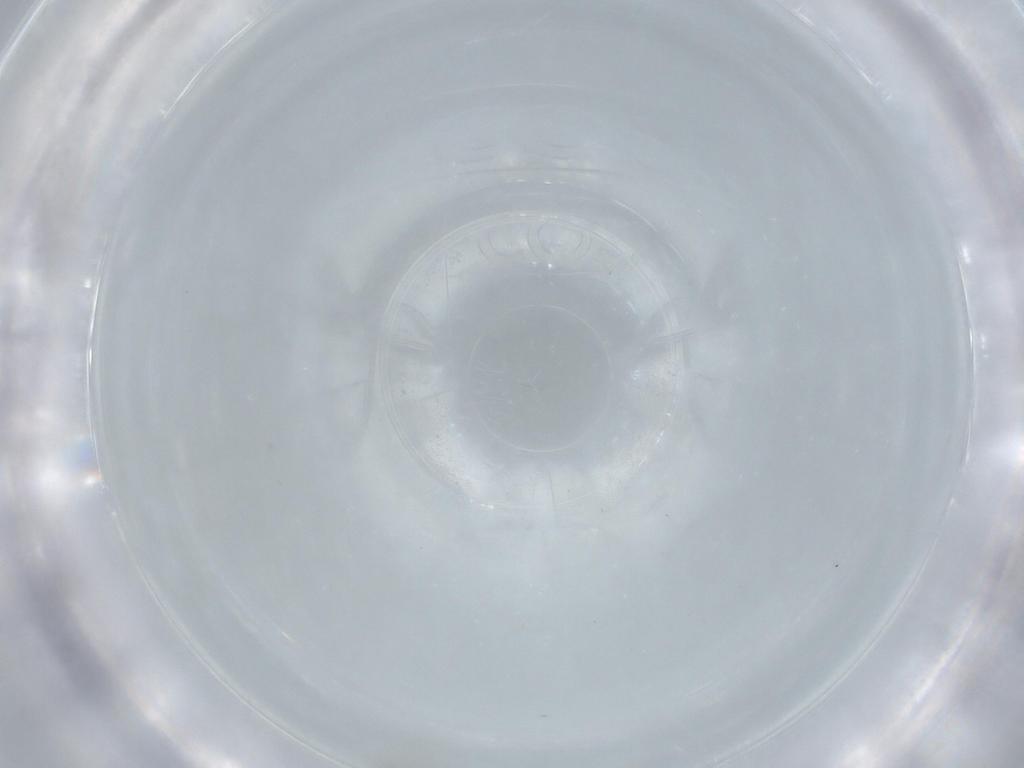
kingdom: Animalia
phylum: Arthropoda
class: Insecta
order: Diptera
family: Cecidomyiidae
